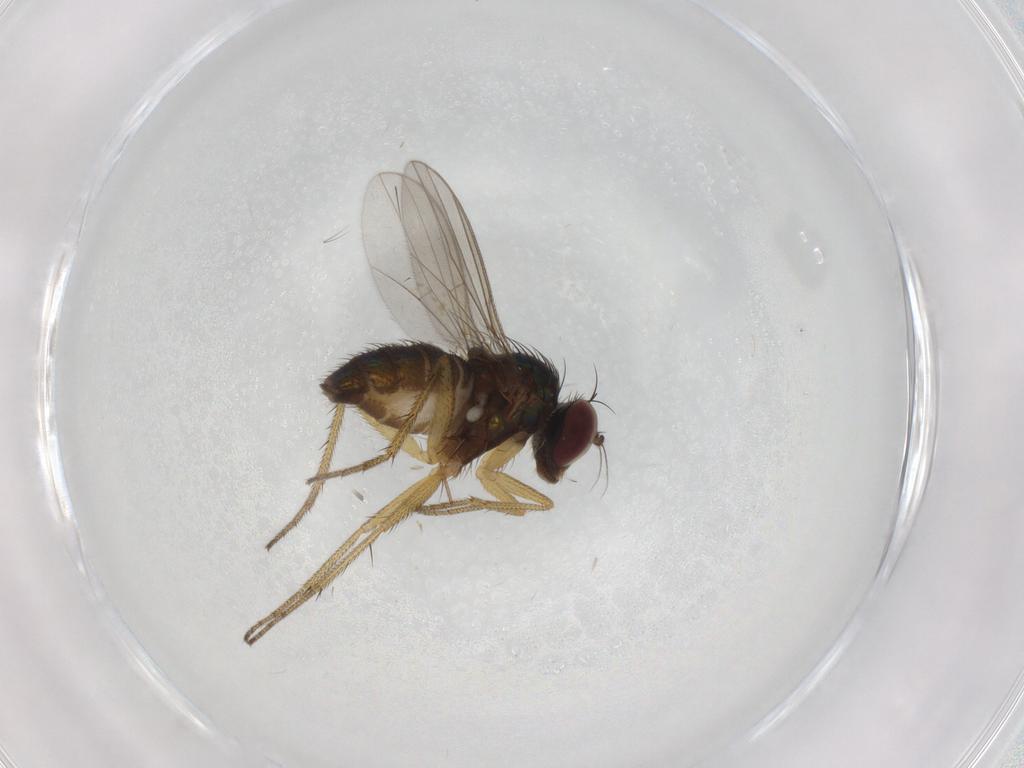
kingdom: Animalia
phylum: Arthropoda
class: Insecta
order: Diptera
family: Dolichopodidae
